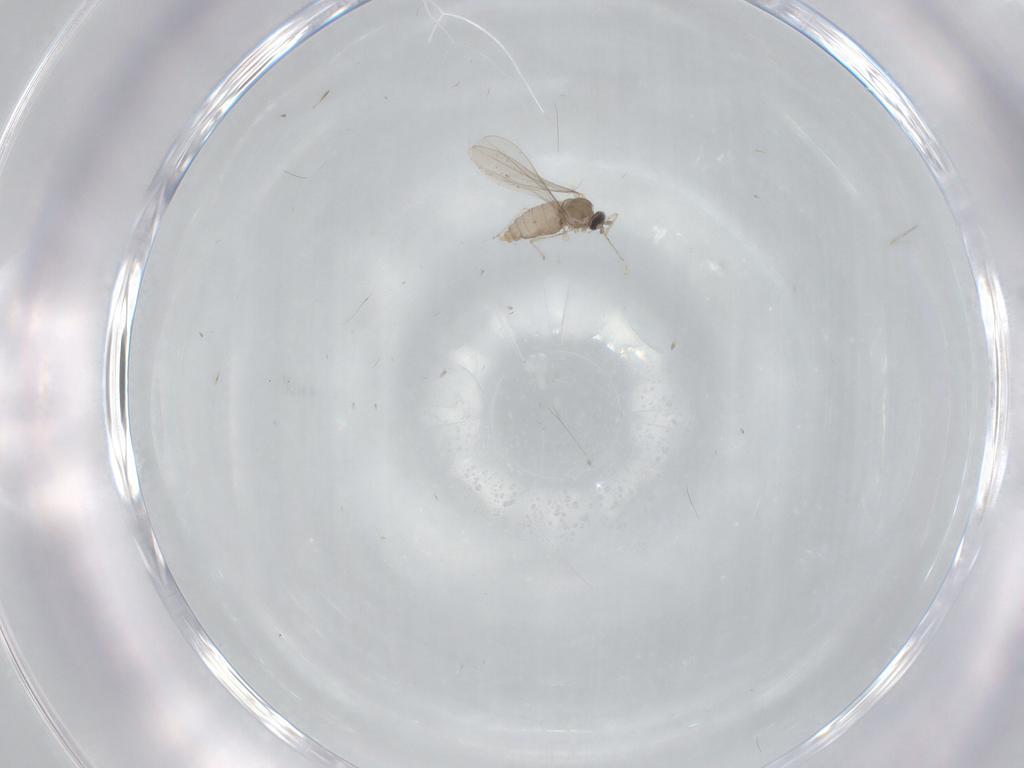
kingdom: Animalia
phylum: Arthropoda
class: Insecta
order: Diptera
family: Cecidomyiidae
